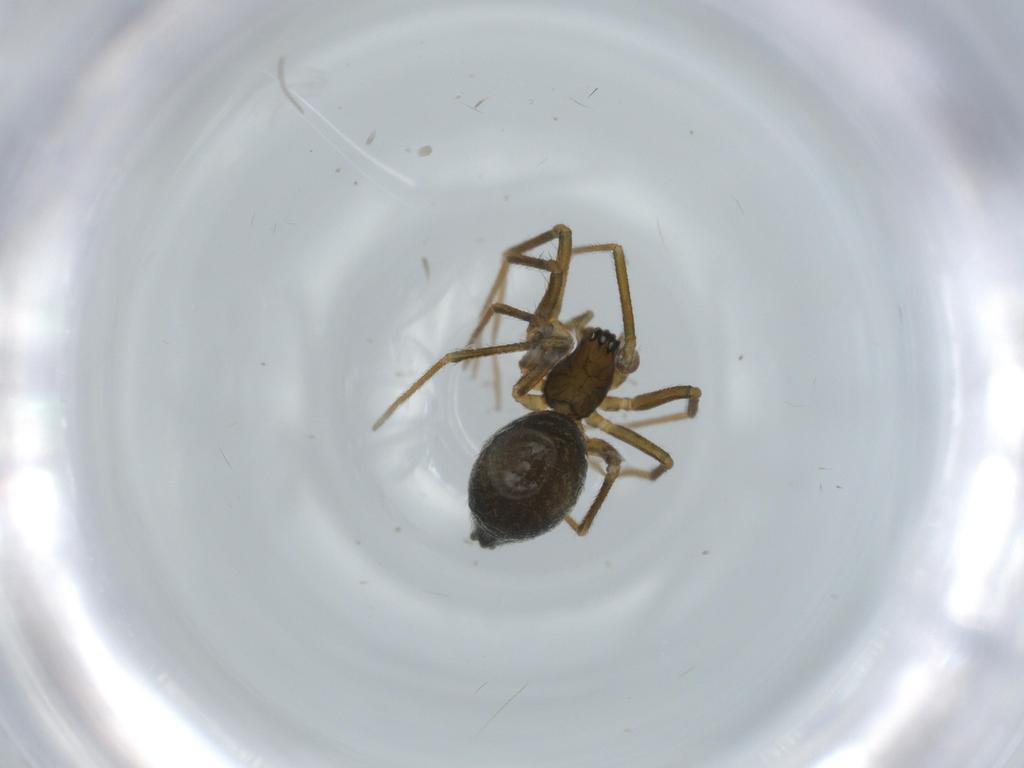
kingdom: Animalia
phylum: Arthropoda
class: Arachnida
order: Araneae
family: Linyphiidae
